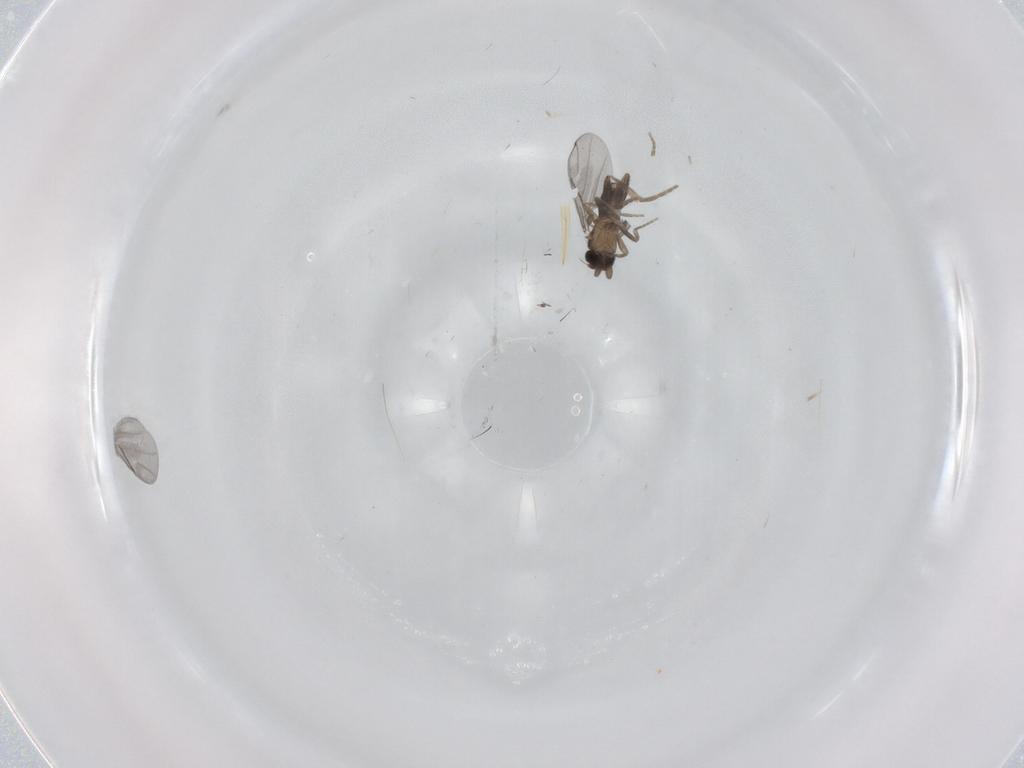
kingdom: Animalia
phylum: Arthropoda
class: Insecta
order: Diptera
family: Cecidomyiidae
